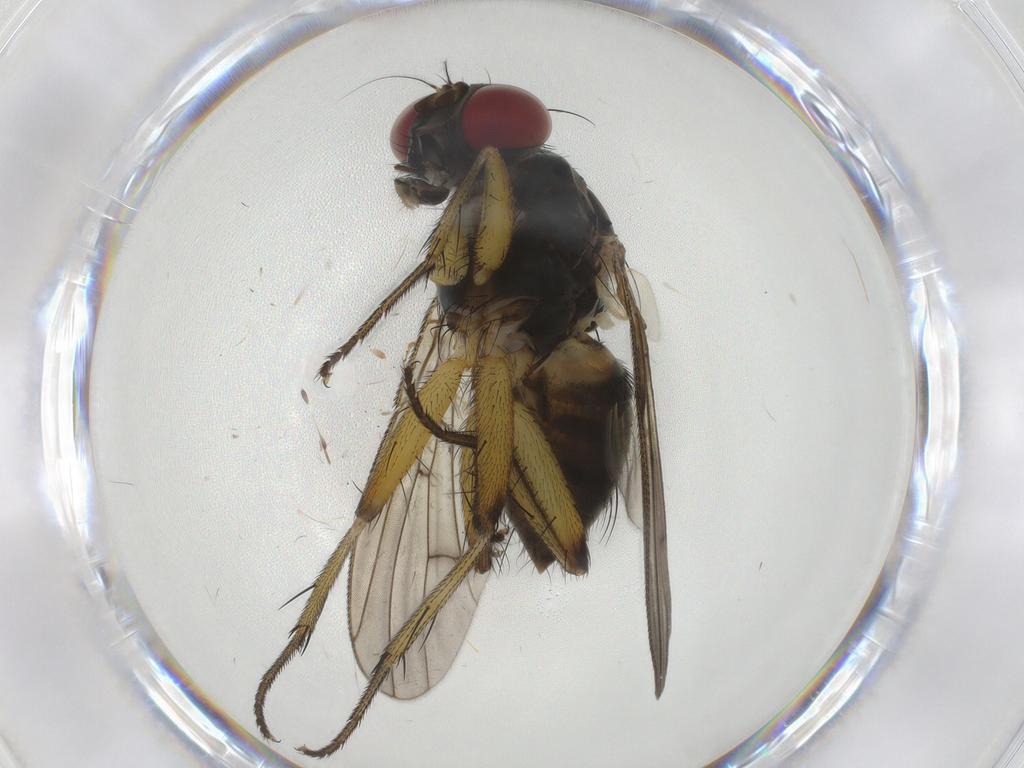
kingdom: Animalia
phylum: Arthropoda
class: Insecta
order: Diptera
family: Muscidae
